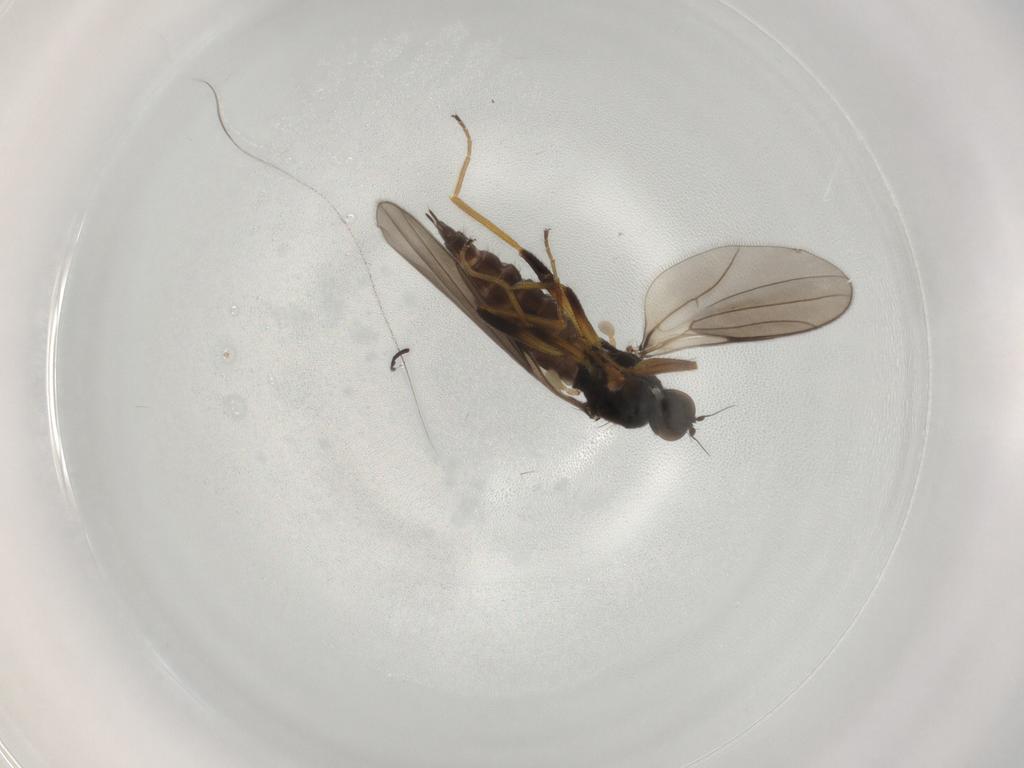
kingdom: Animalia
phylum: Arthropoda
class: Insecta
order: Diptera
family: Hybotidae
